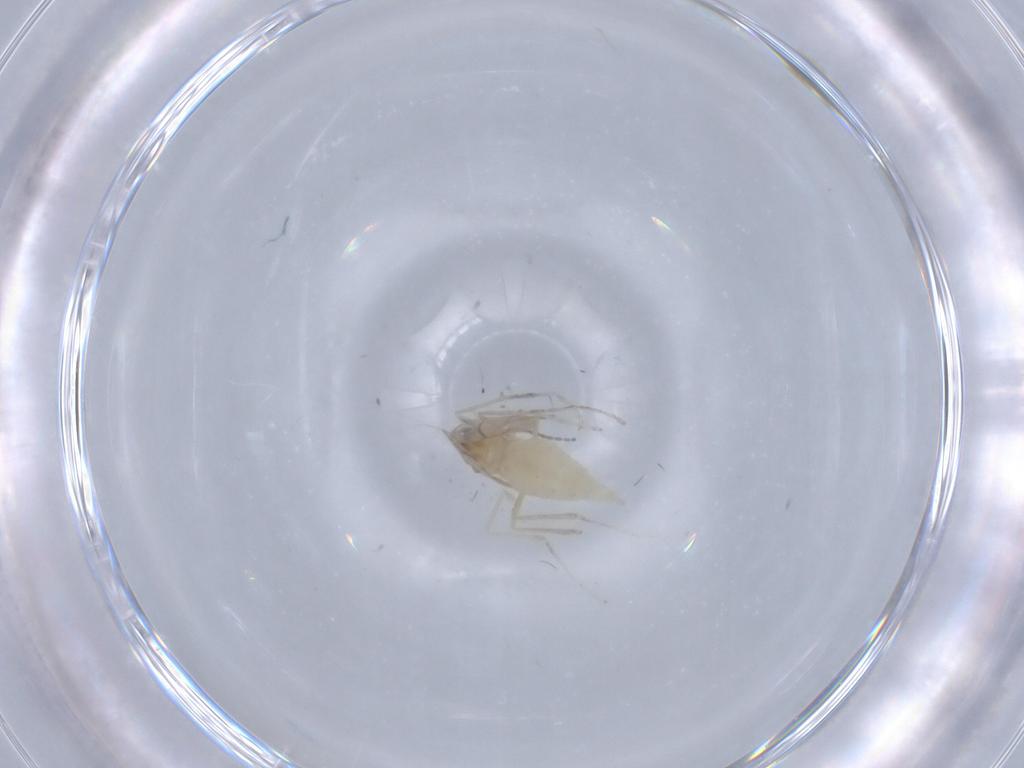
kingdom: Animalia
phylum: Arthropoda
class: Insecta
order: Diptera
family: Cecidomyiidae
